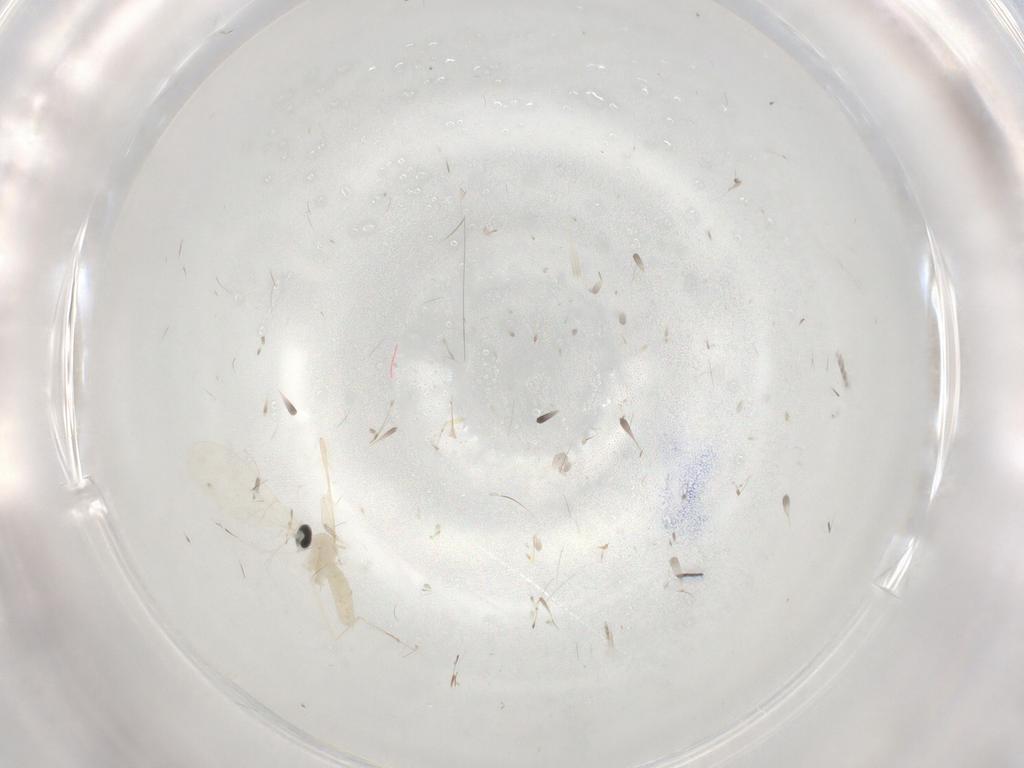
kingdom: Animalia
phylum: Arthropoda
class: Insecta
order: Diptera
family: Cecidomyiidae
